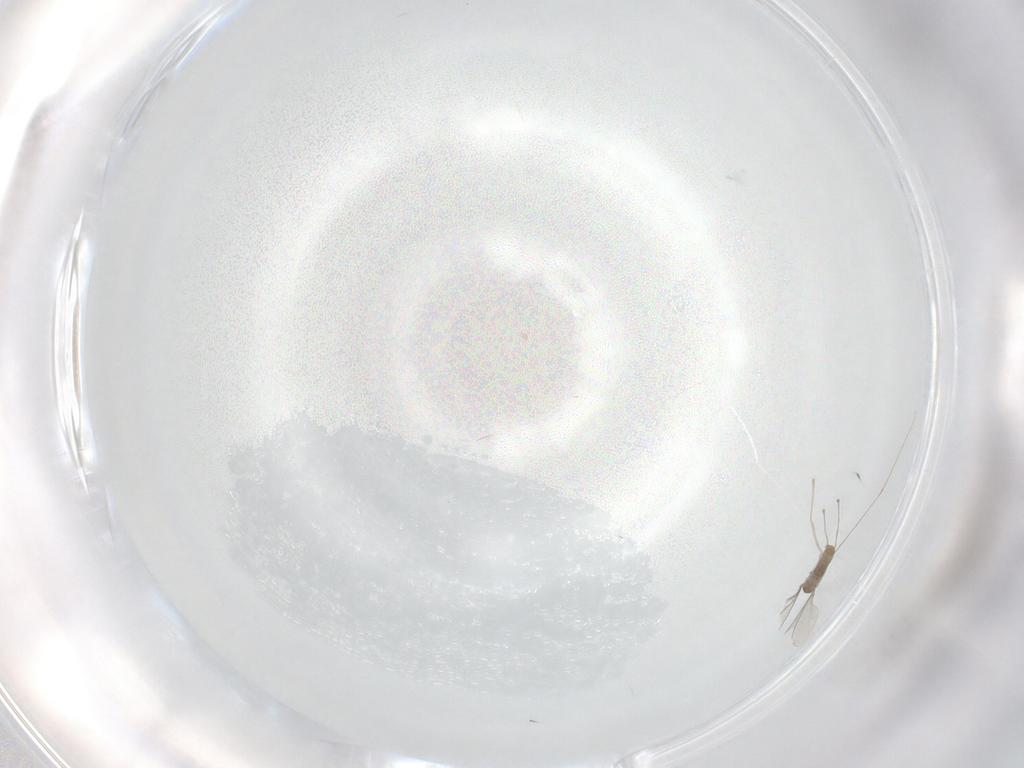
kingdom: Animalia
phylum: Arthropoda
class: Insecta
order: Diptera
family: Cecidomyiidae
